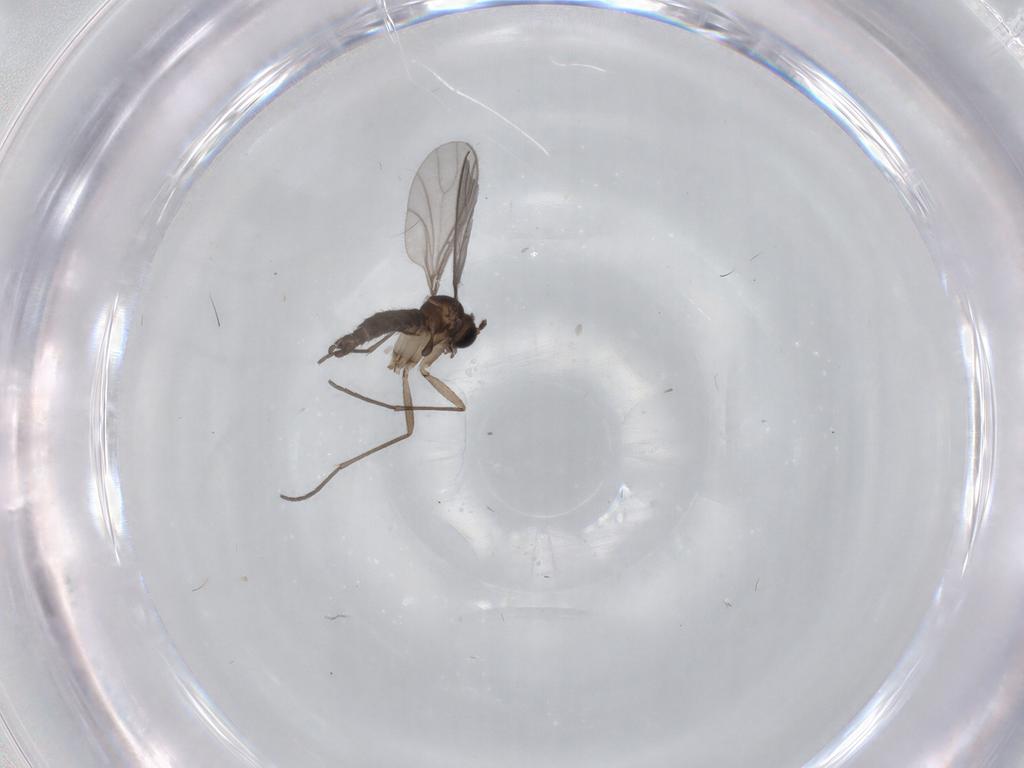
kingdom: Animalia
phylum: Arthropoda
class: Insecta
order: Diptera
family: Sciaridae
